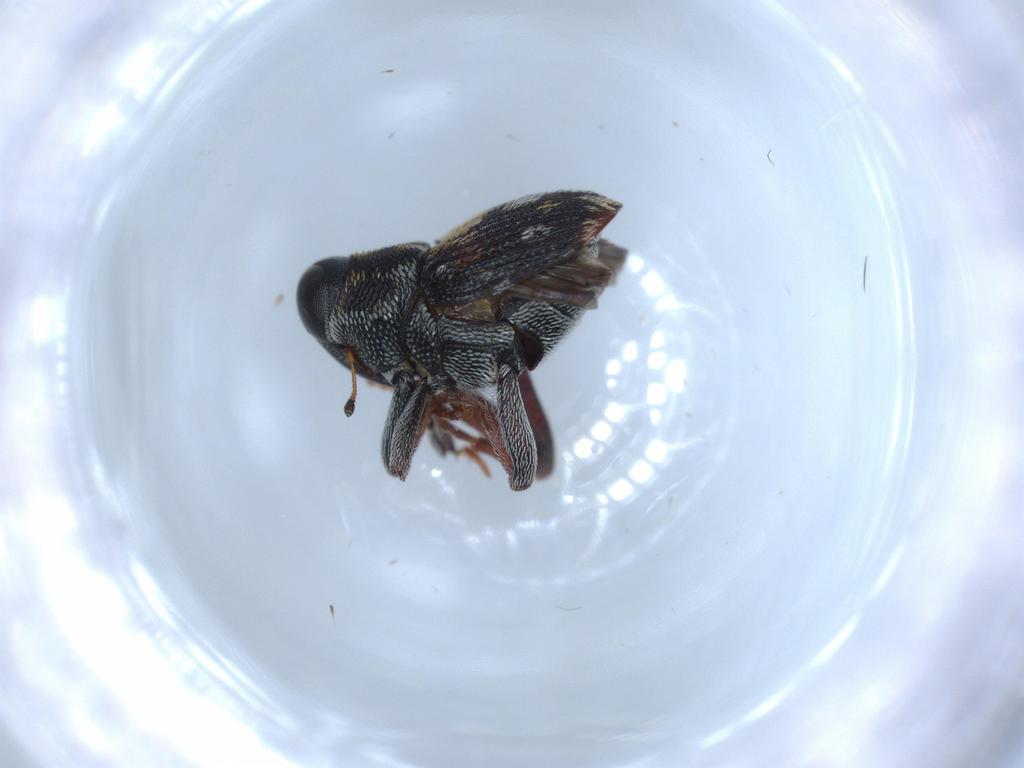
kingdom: Animalia
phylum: Arthropoda
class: Insecta
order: Coleoptera
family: Curculionidae
